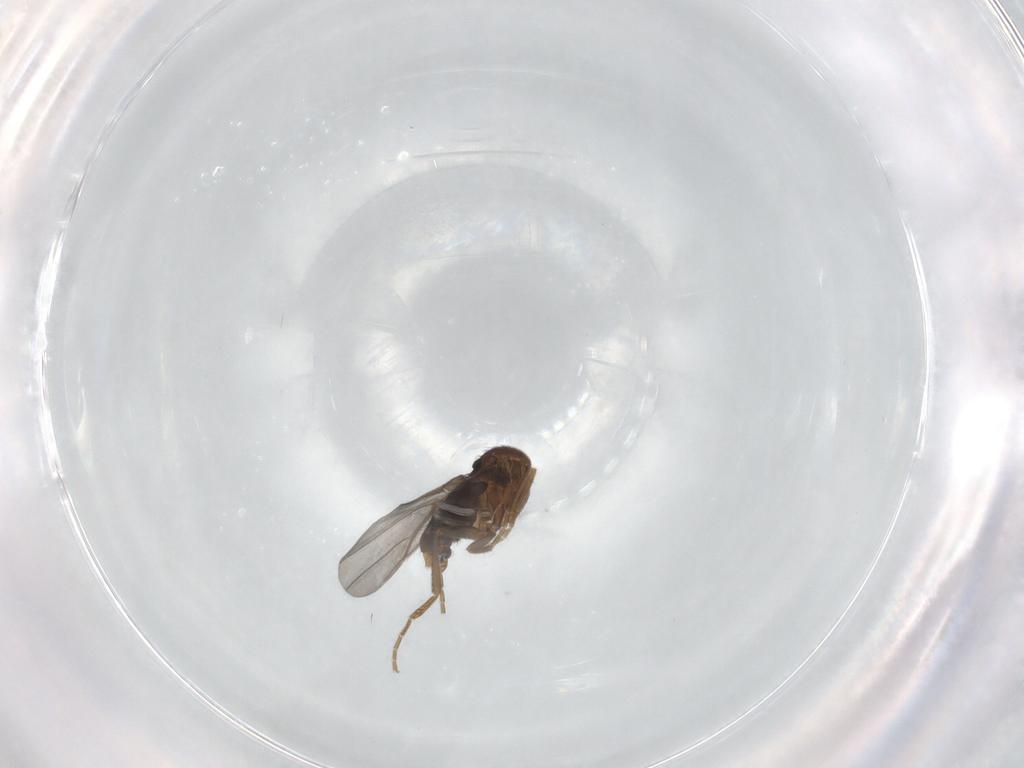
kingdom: Animalia
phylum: Arthropoda
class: Insecta
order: Diptera
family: Phoridae
